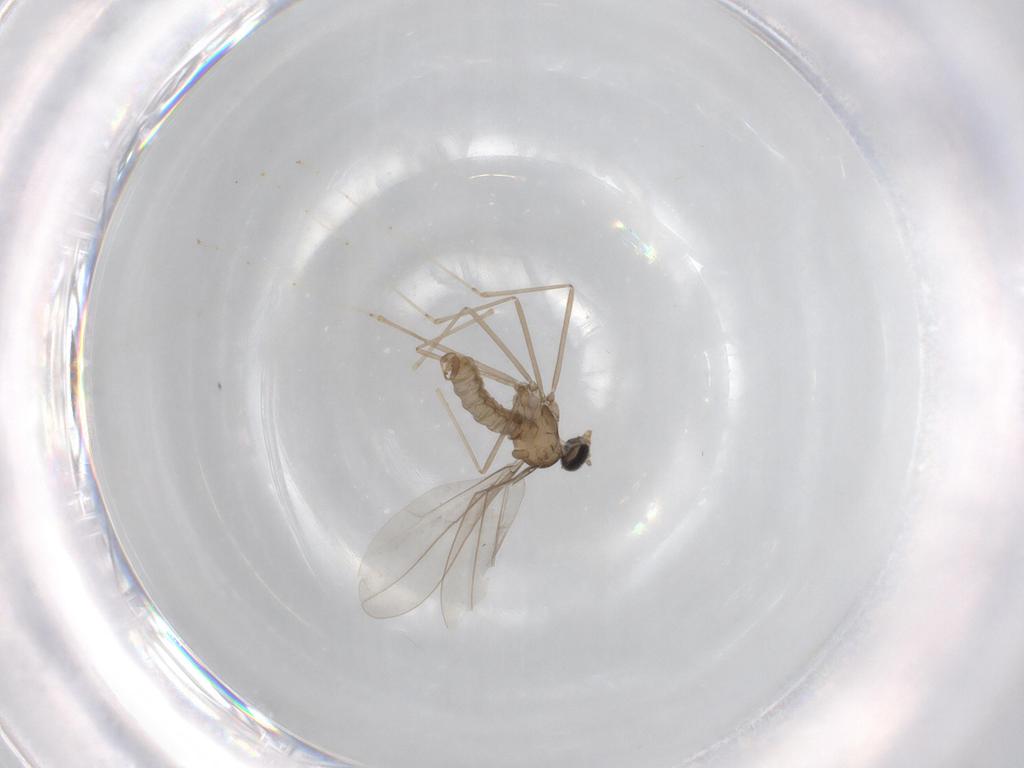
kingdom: Animalia
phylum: Arthropoda
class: Insecta
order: Diptera
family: Cecidomyiidae
